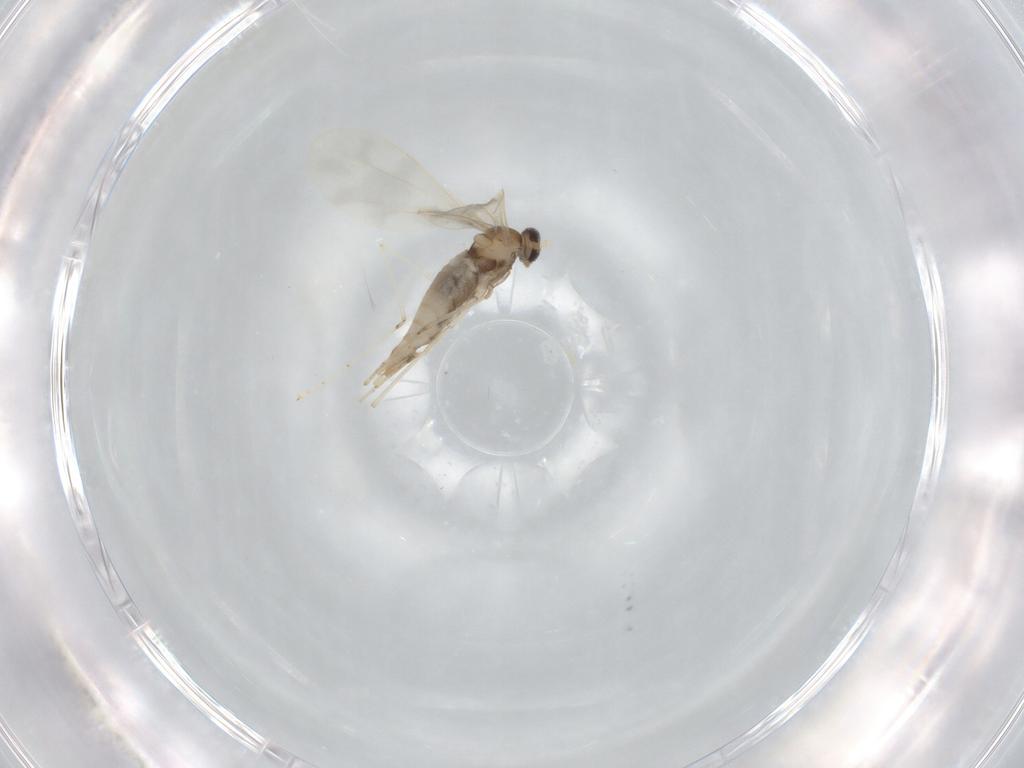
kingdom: Animalia
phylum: Arthropoda
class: Insecta
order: Diptera
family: Cecidomyiidae
